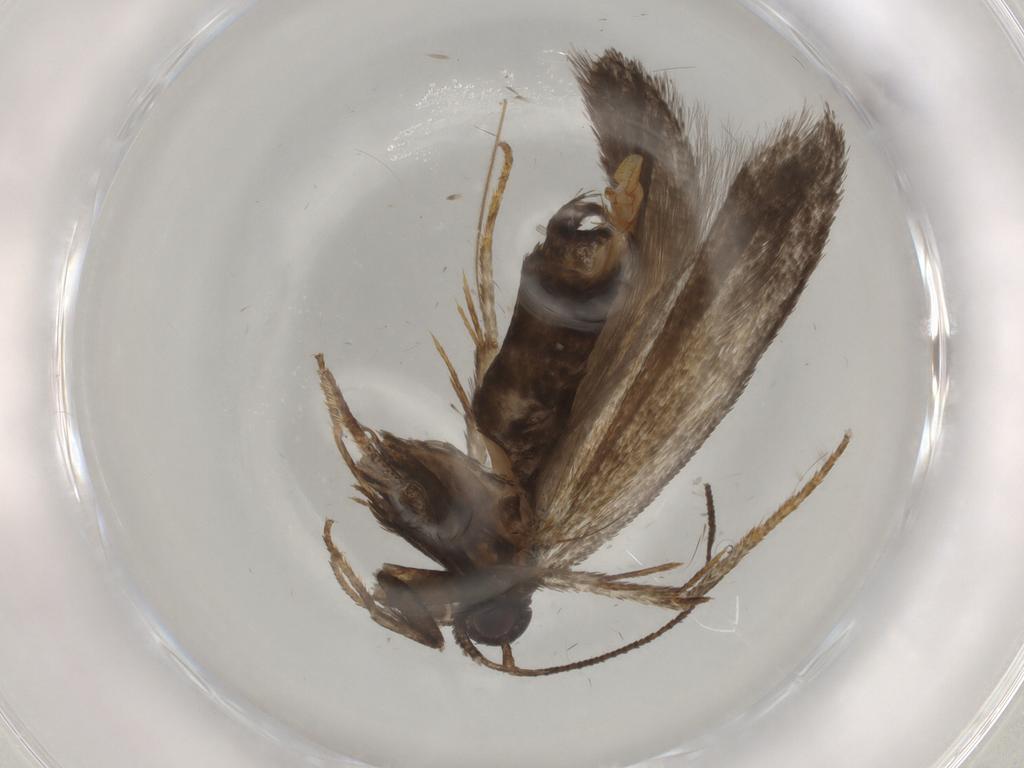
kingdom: Animalia
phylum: Arthropoda
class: Insecta
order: Lepidoptera
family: Gelechiidae
